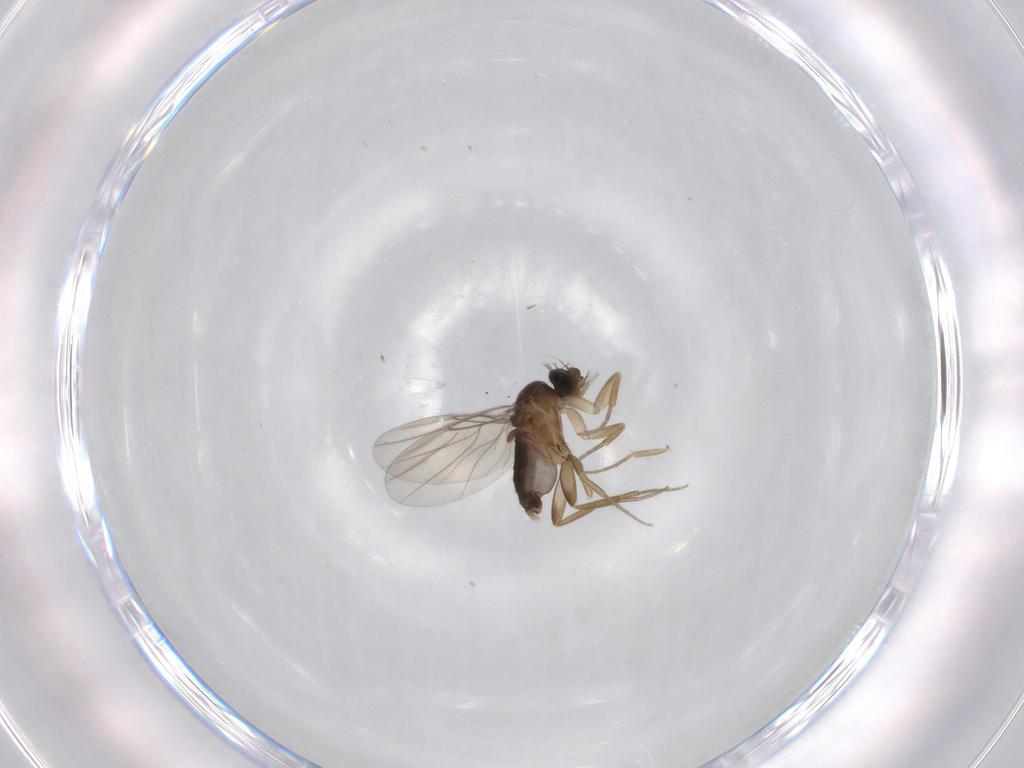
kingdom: Animalia
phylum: Arthropoda
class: Insecta
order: Diptera
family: Phoridae
